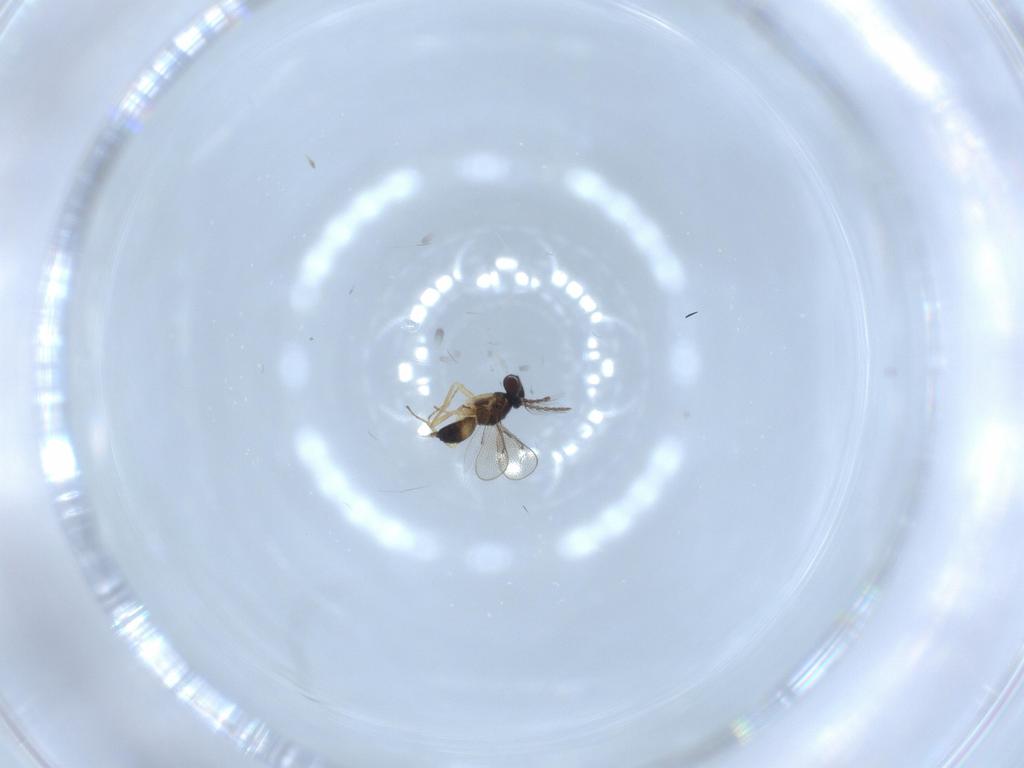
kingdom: Animalia
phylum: Arthropoda
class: Insecta
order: Hymenoptera
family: Eulophidae
